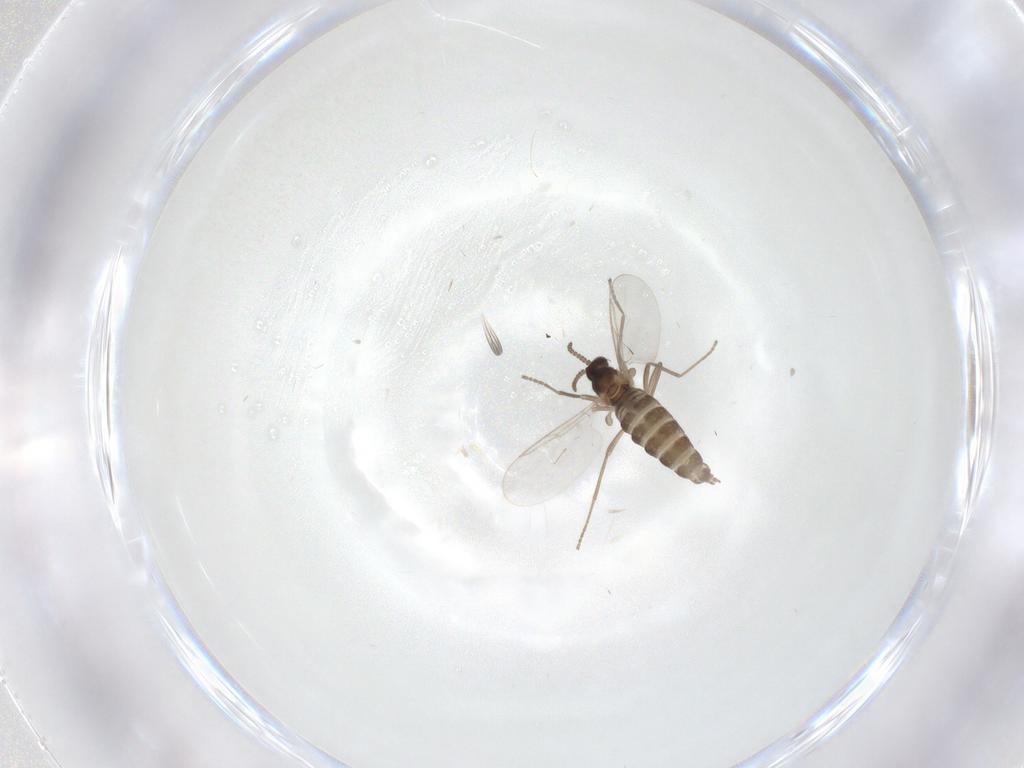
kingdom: Animalia
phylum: Arthropoda
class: Insecta
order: Diptera
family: Cecidomyiidae
